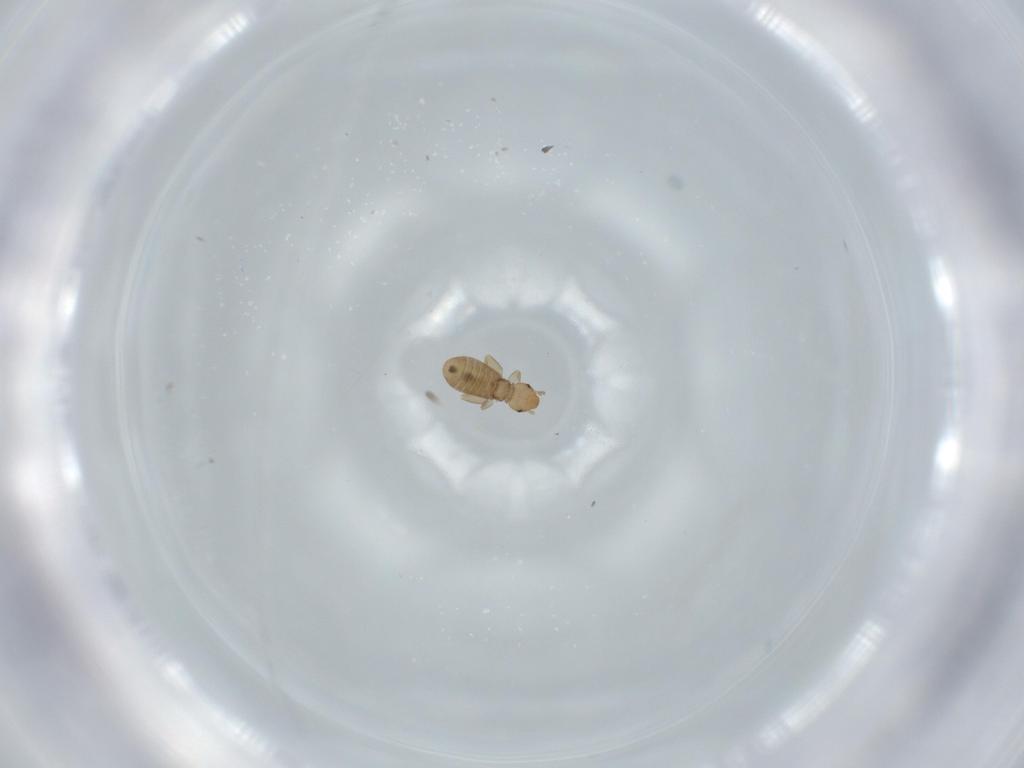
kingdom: Animalia
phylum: Arthropoda
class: Insecta
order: Psocodea
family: Liposcelididae
